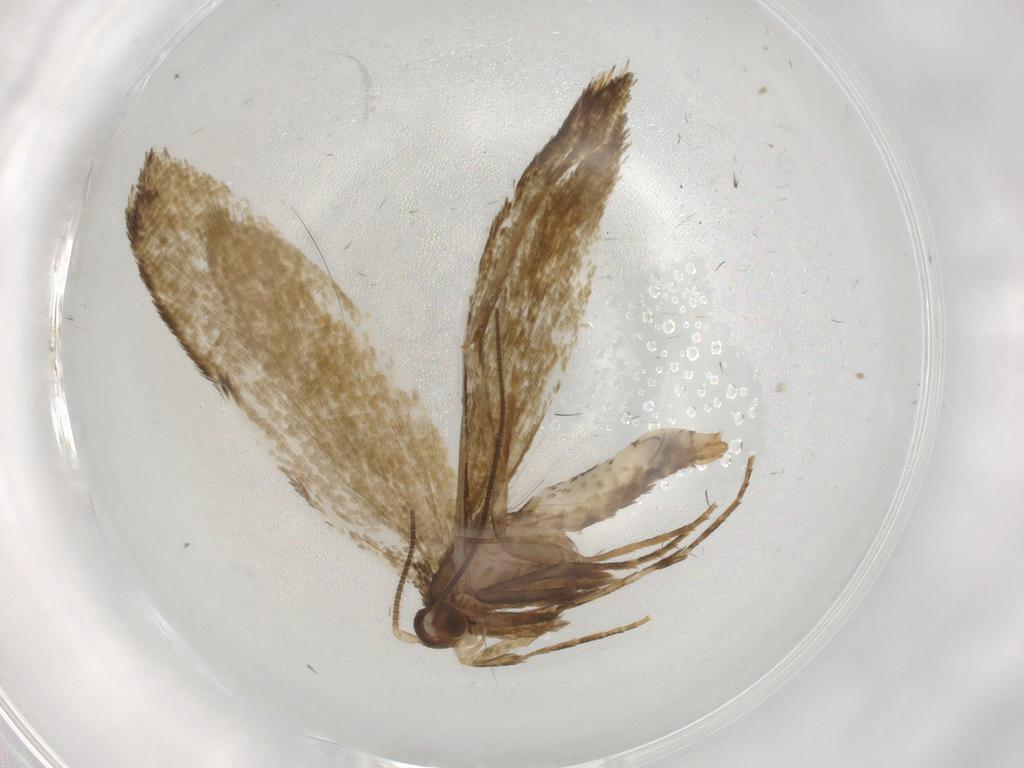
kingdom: Animalia
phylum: Arthropoda
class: Insecta
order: Lepidoptera
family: Tineidae
